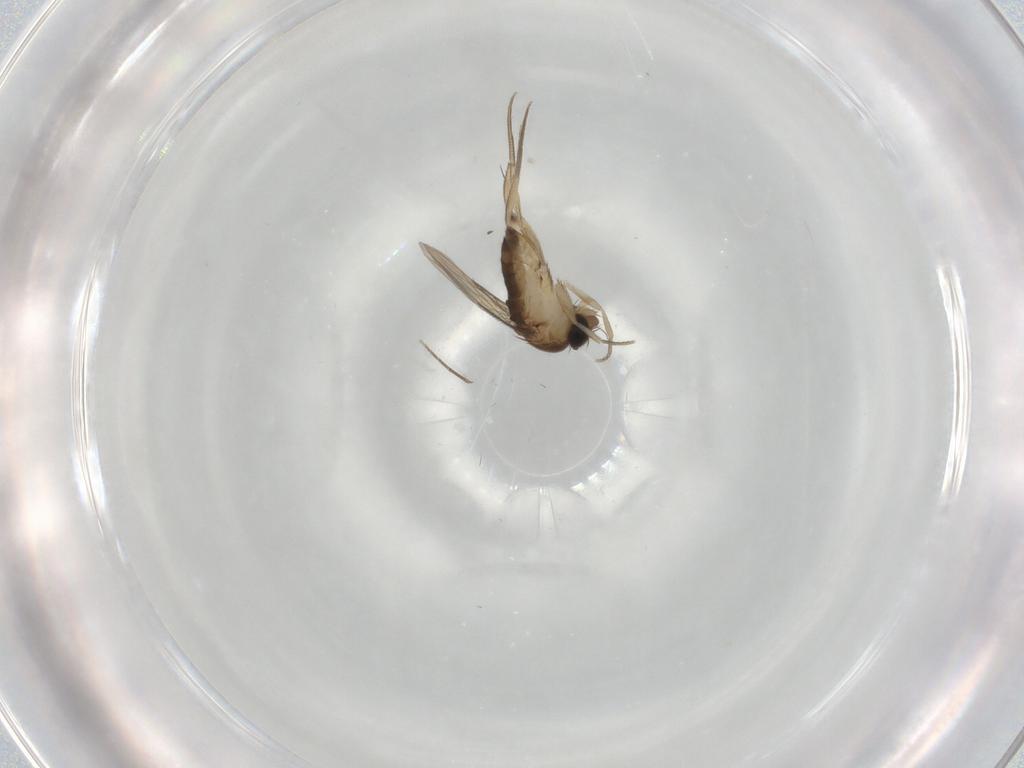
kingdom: Animalia
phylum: Arthropoda
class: Insecta
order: Diptera
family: Phoridae
